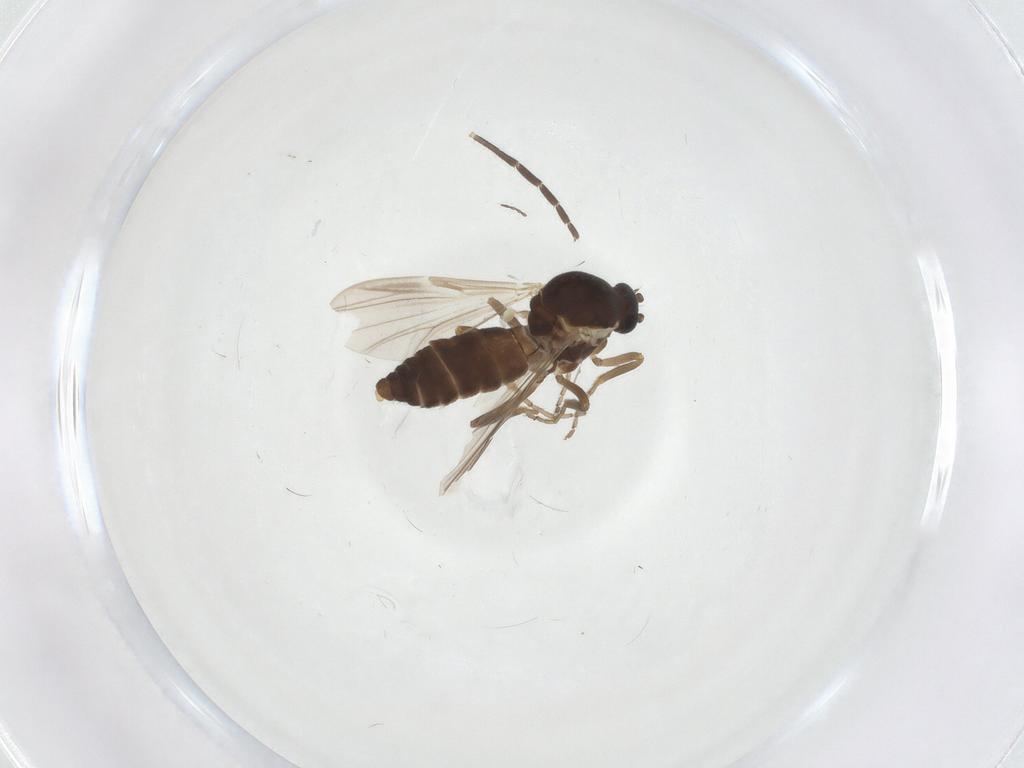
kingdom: Animalia
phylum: Arthropoda
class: Insecta
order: Diptera
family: Ceratopogonidae
